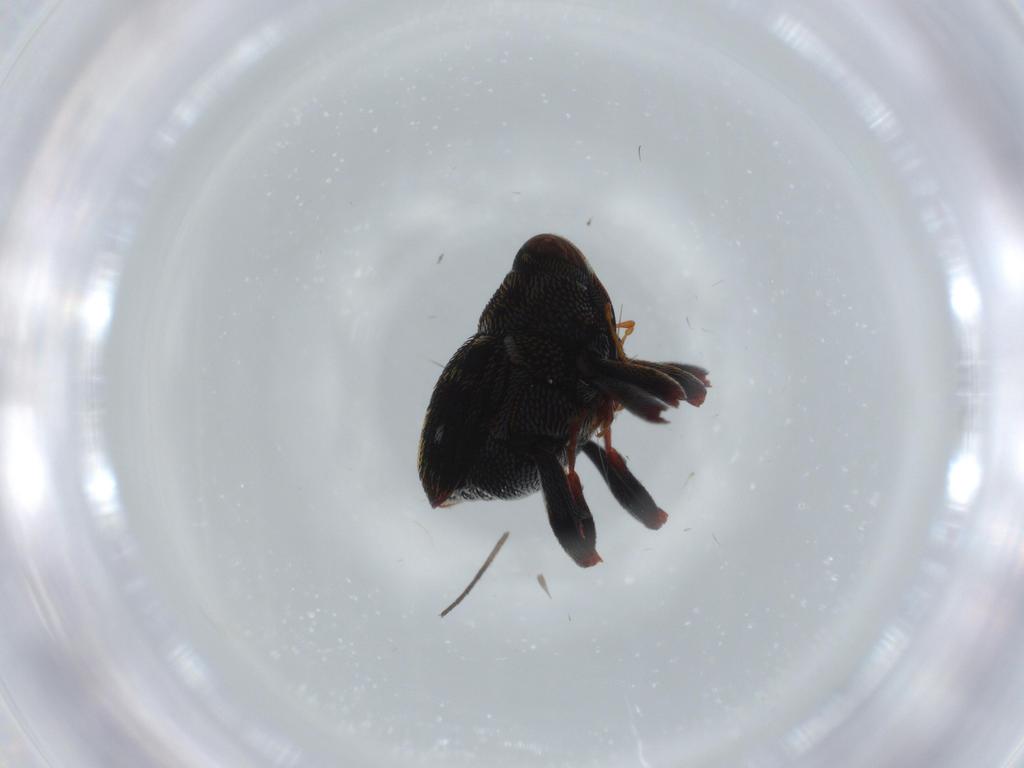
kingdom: Animalia
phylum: Arthropoda
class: Insecta
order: Coleoptera
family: Curculionidae
